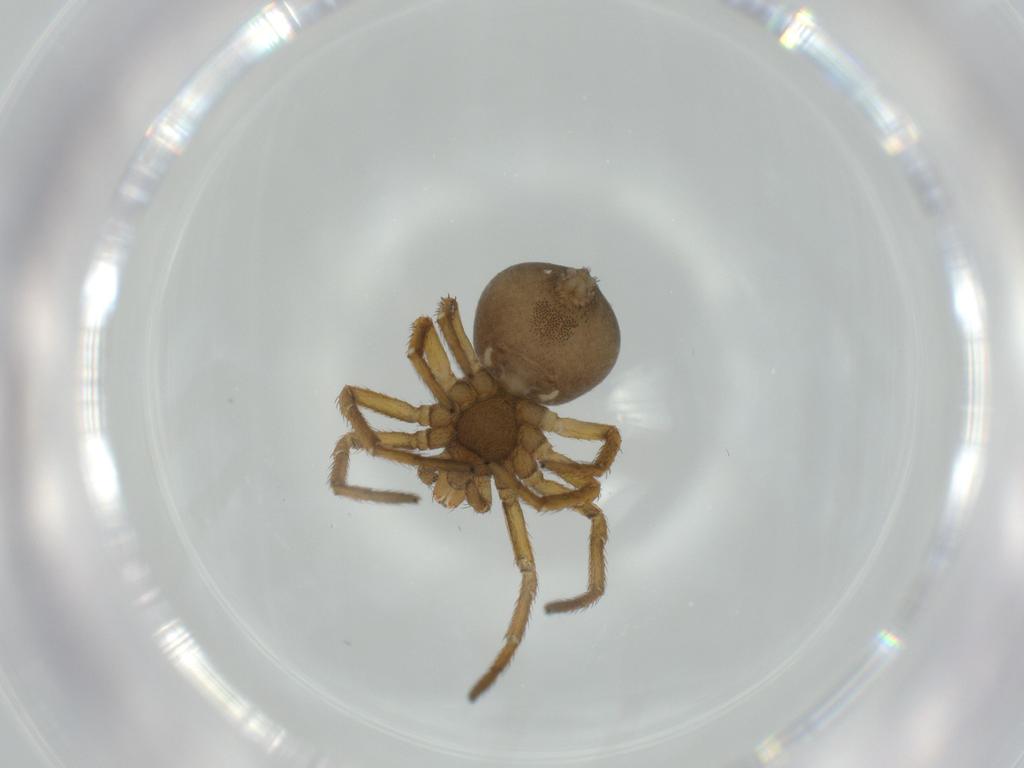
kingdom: Animalia
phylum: Arthropoda
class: Arachnida
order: Araneae
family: Thomisidae
